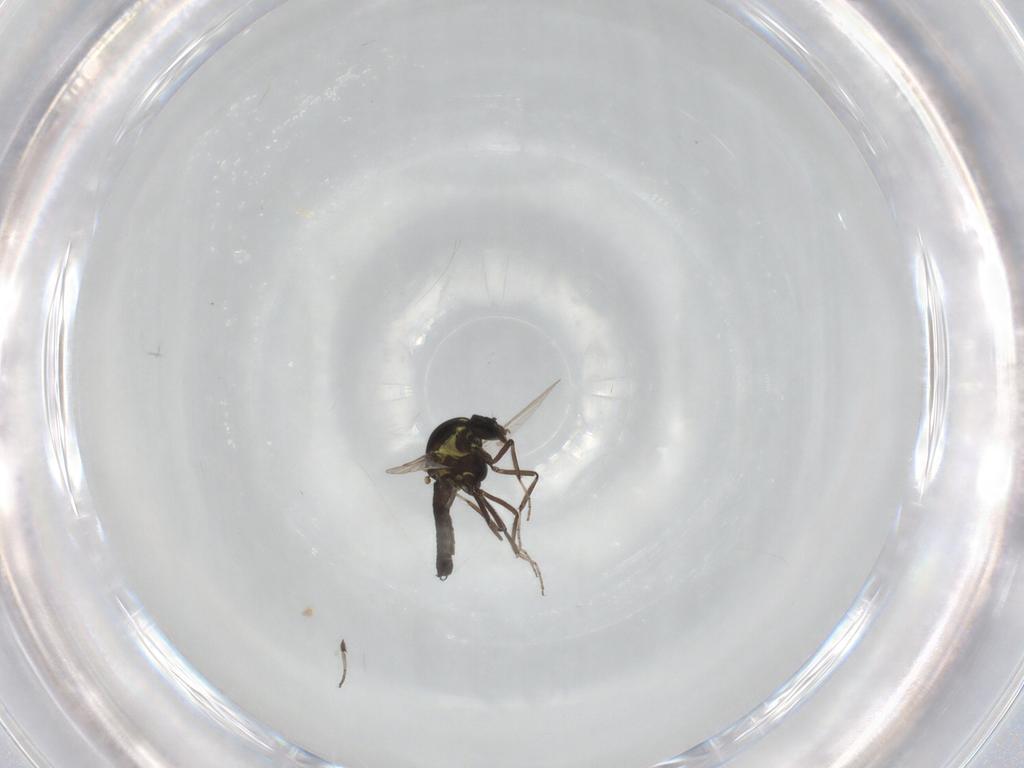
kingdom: Animalia
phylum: Arthropoda
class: Insecta
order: Diptera
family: Ceratopogonidae
